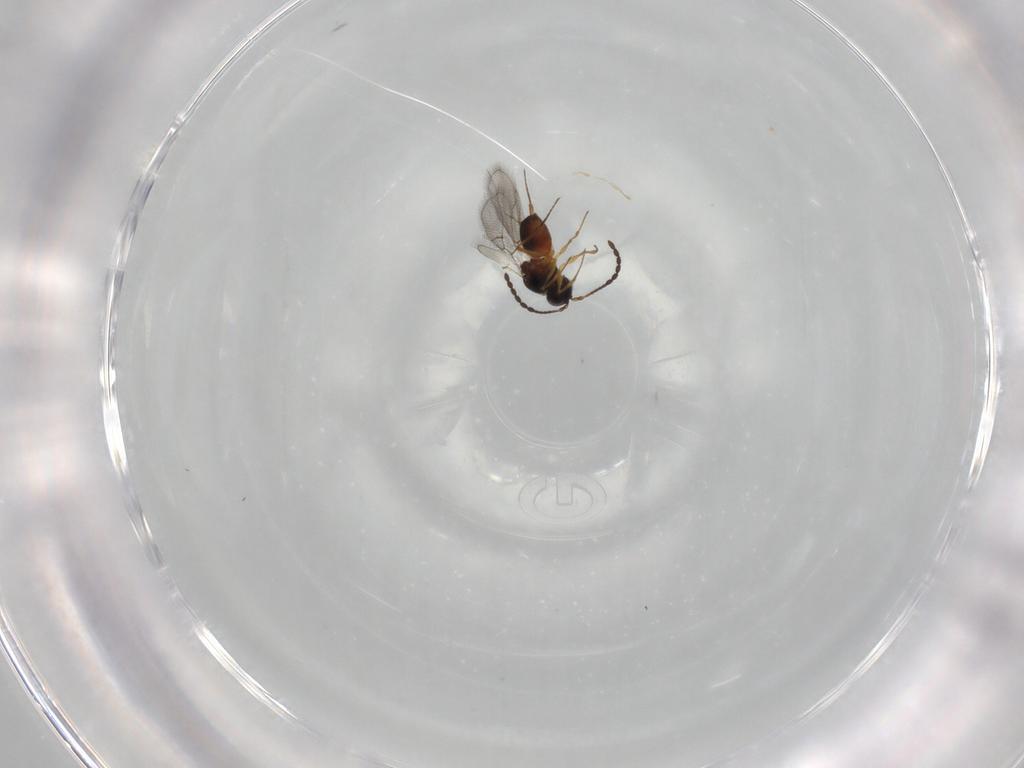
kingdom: Animalia
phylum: Arthropoda
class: Insecta
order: Hymenoptera
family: Figitidae
